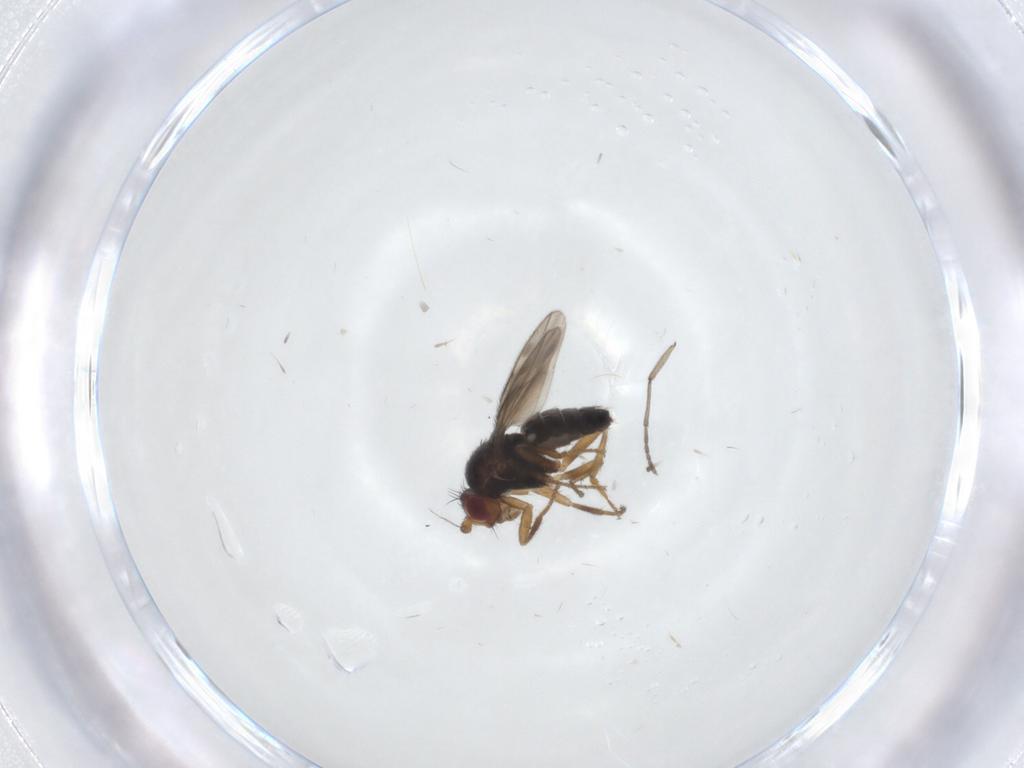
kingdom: Animalia
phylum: Arthropoda
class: Insecta
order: Diptera
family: Sphaeroceridae
